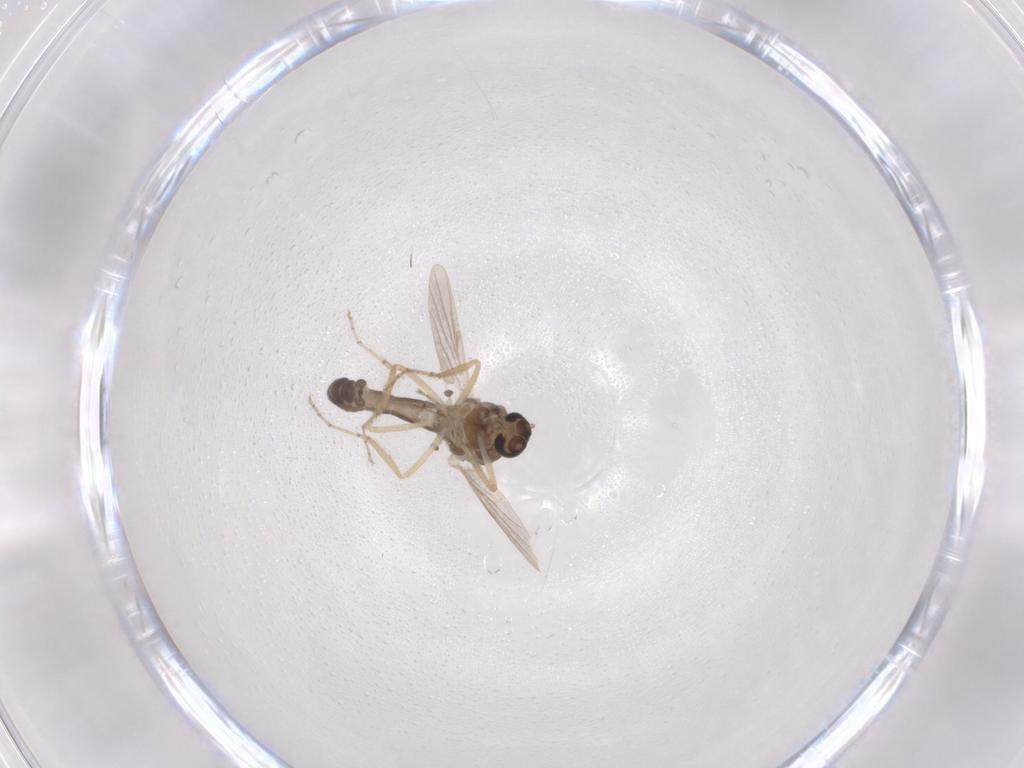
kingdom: Animalia
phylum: Arthropoda
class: Insecta
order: Diptera
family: Ceratopogonidae
